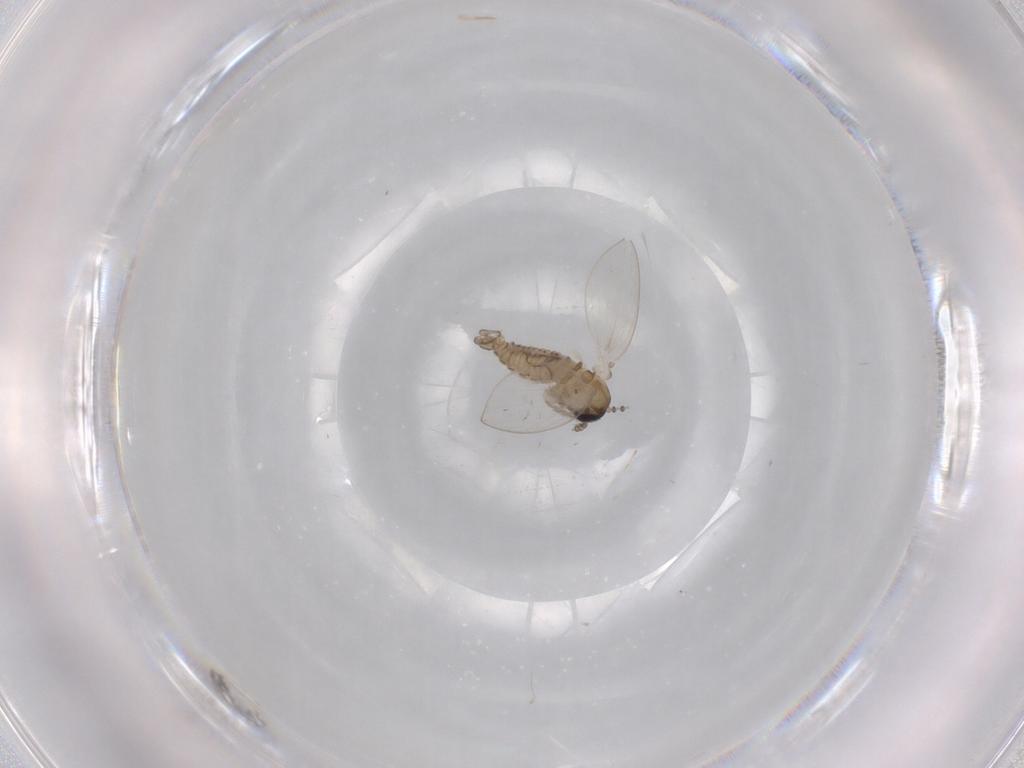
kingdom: Animalia
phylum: Arthropoda
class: Insecta
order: Diptera
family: Psychodidae
